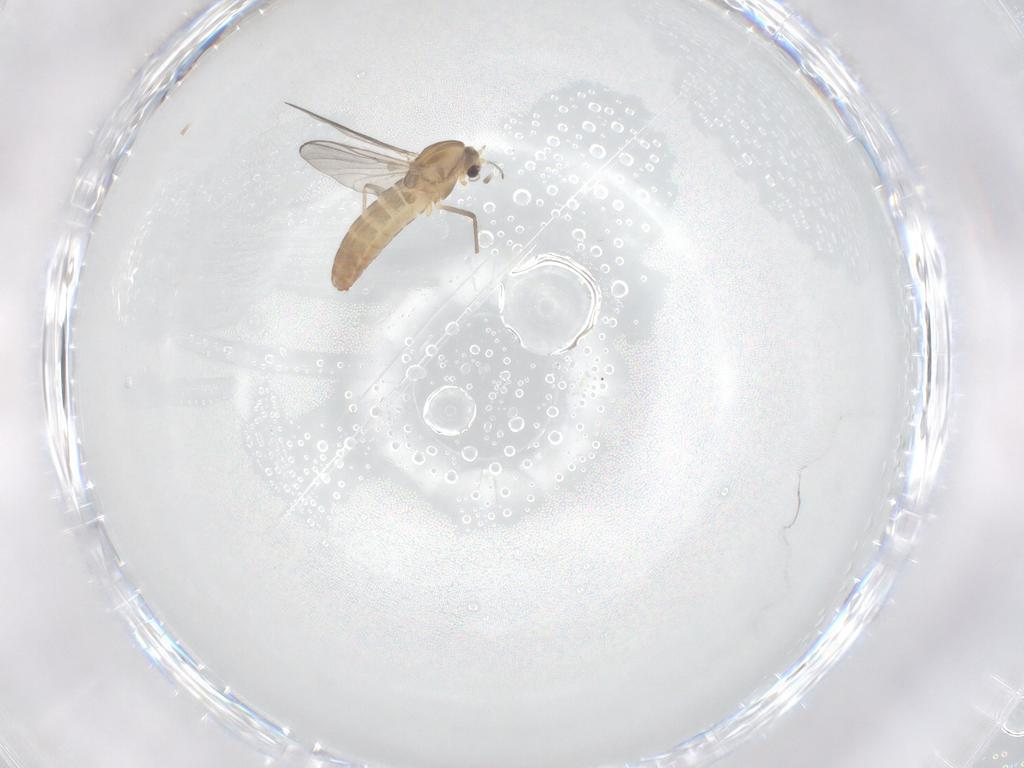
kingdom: Animalia
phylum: Arthropoda
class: Insecta
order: Diptera
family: Chironomidae
